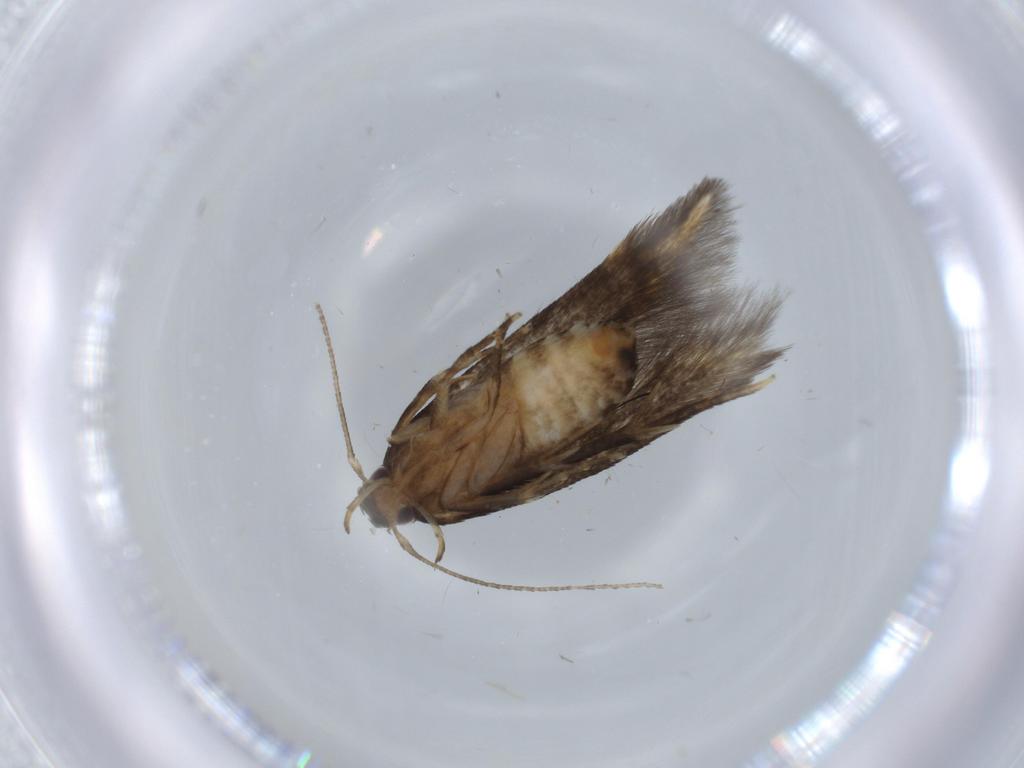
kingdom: Animalia
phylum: Arthropoda
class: Insecta
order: Lepidoptera
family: Cosmopterigidae
